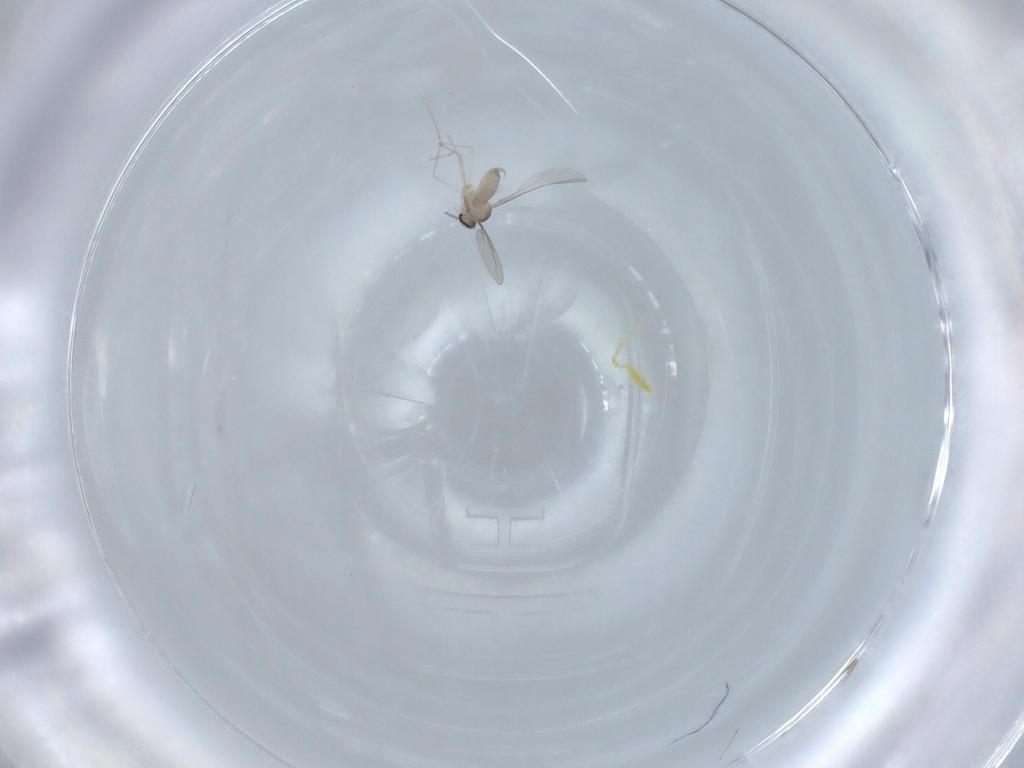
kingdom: Animalia
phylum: Arthropoda
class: Insecta
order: Diptera
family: Cecidomyiidae
